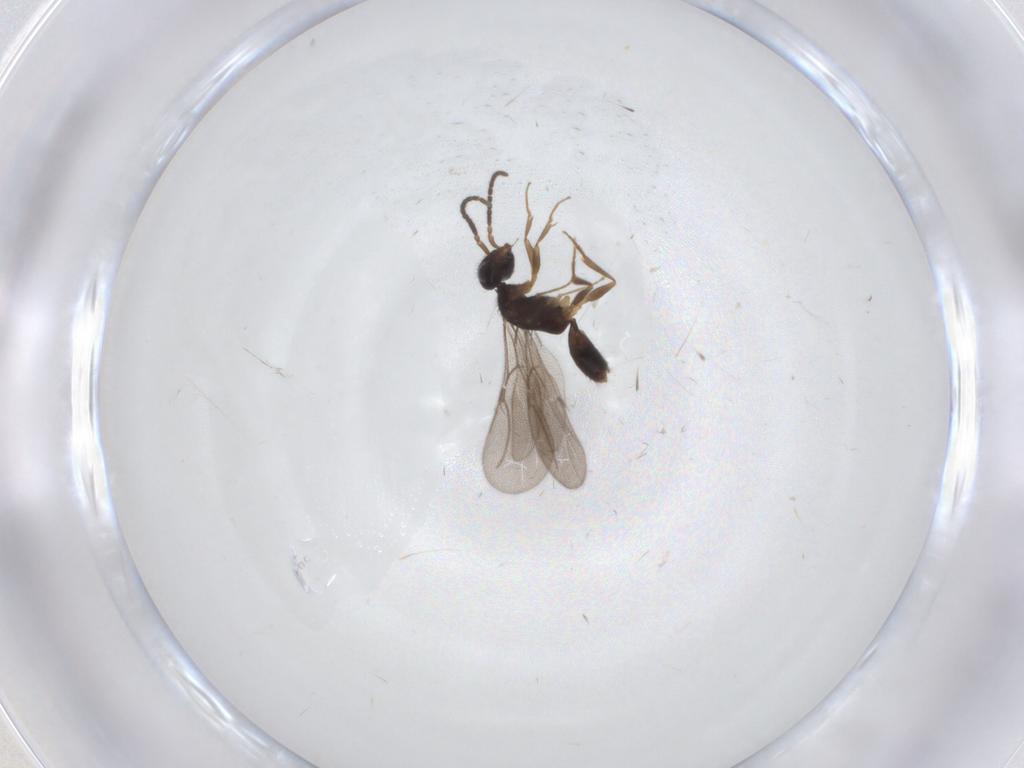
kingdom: Animalia
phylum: Arthropoda
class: Insecta
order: Hymenoptera
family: Bethylidae
